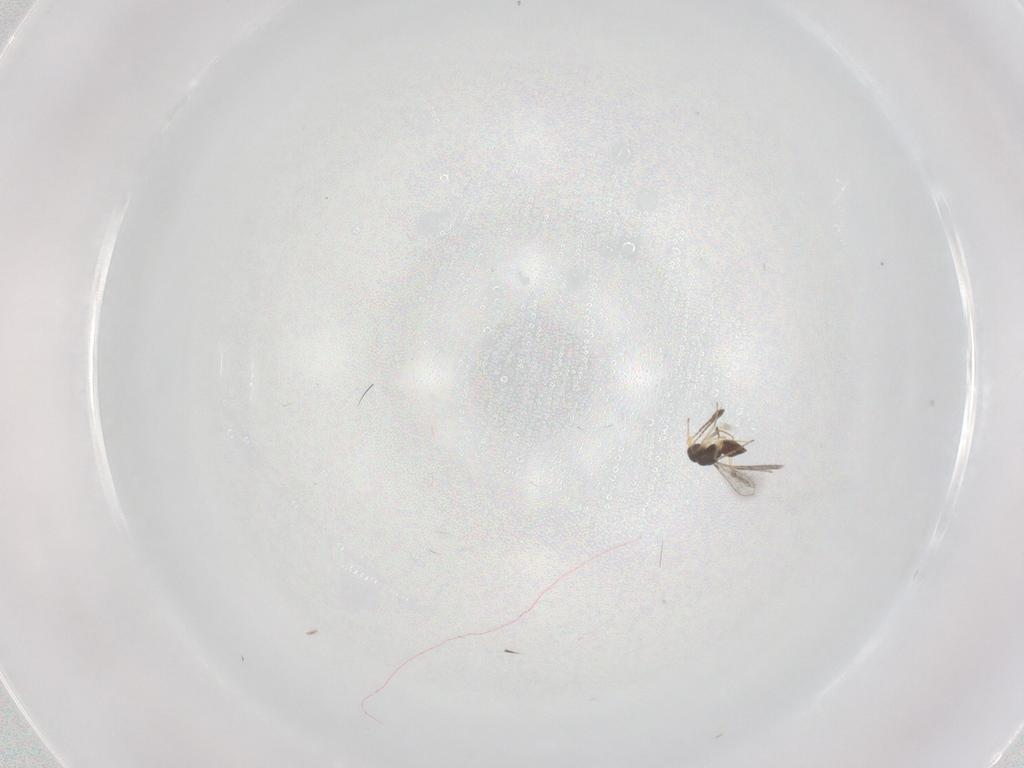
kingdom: Animalia
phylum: Arthropoda
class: Insecta
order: Hymenoptera
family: Mymaridae
